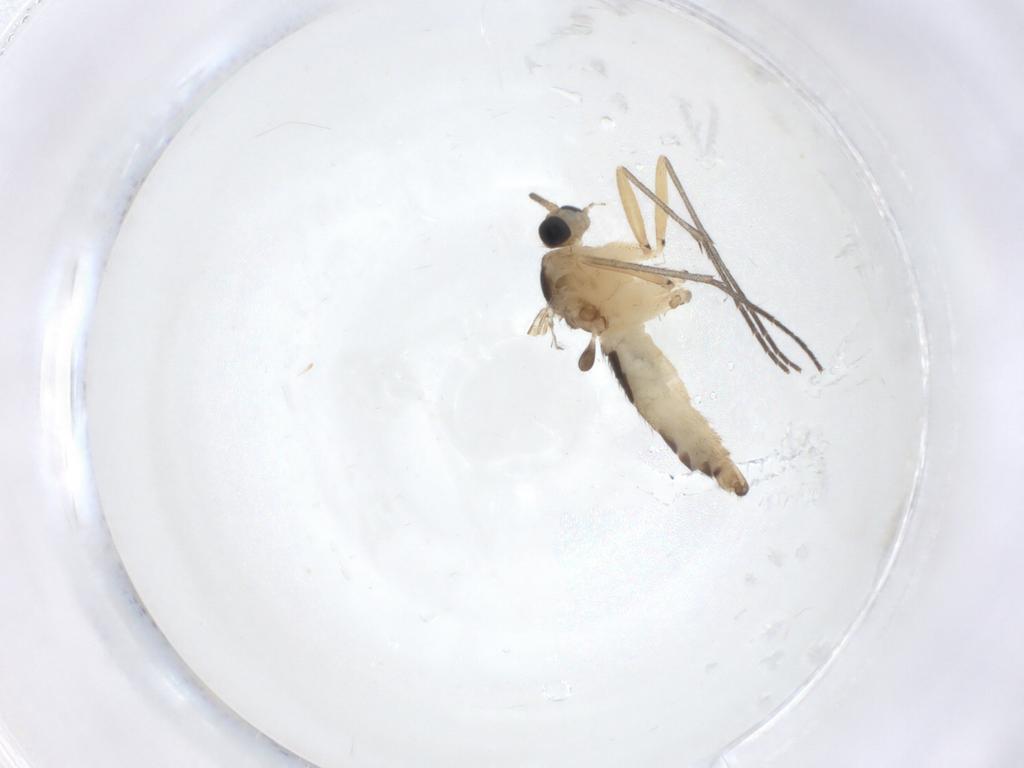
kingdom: Animalia
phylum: Arthropoda
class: Insecta
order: Diptera
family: Sciaridae
